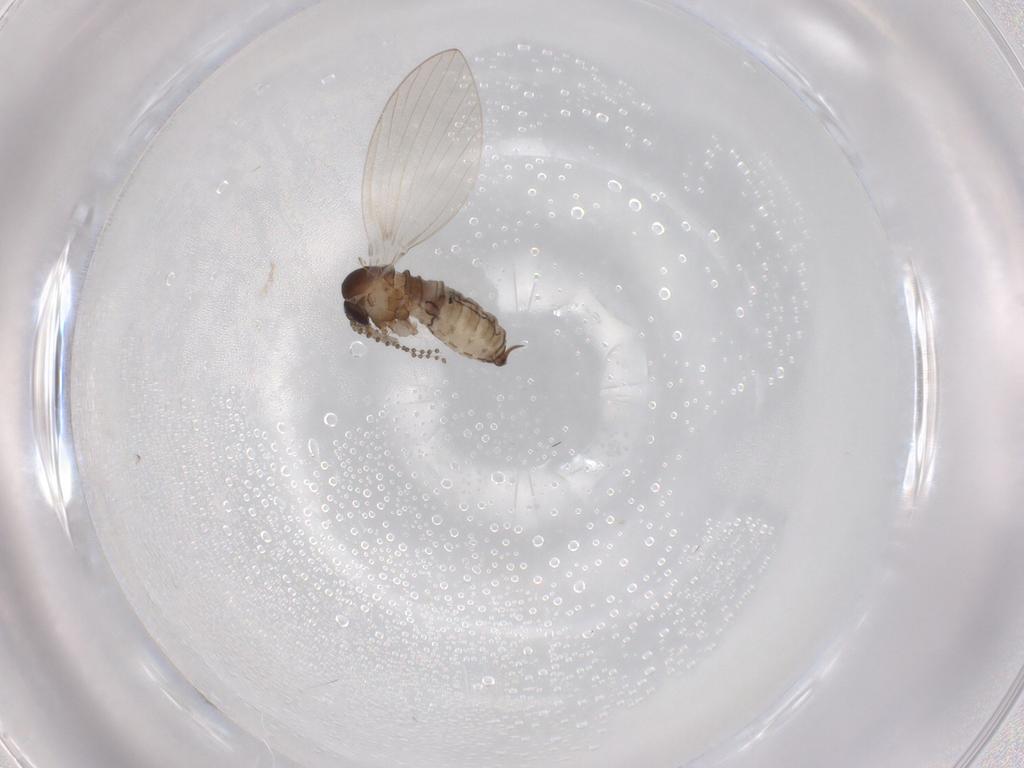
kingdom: Animalia
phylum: Arthropoda
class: Insecta
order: Diptera
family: Psychodidae
